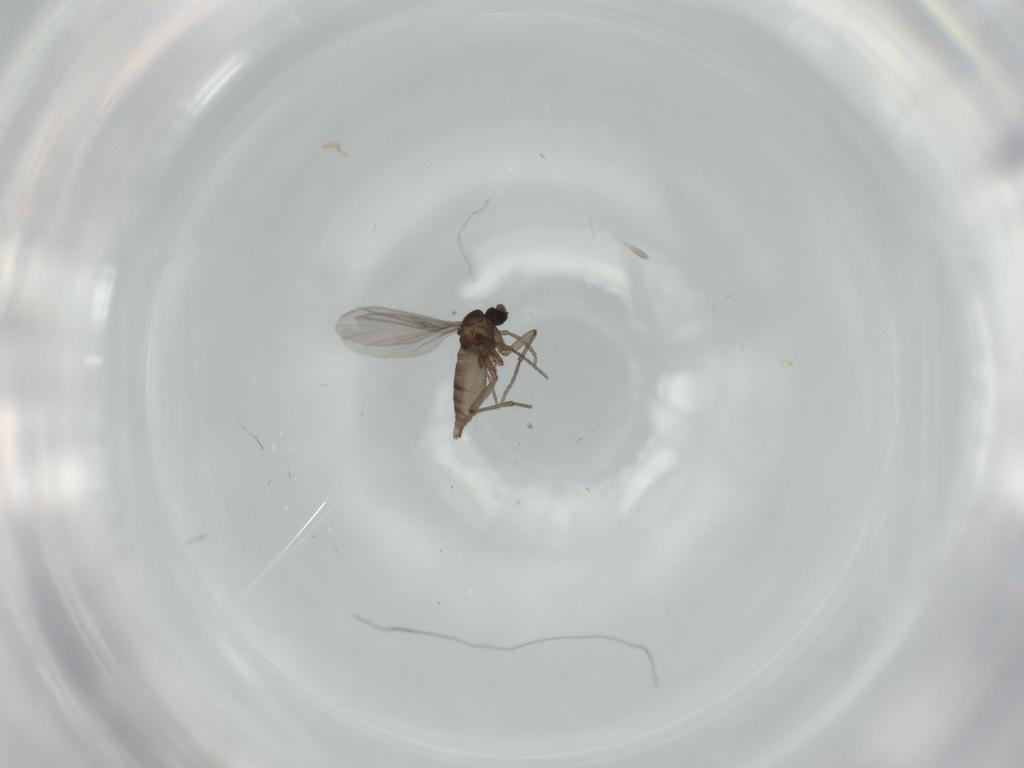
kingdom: Animalia
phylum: Arthropoda
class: Insecta
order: Diptera
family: Sciaridae
